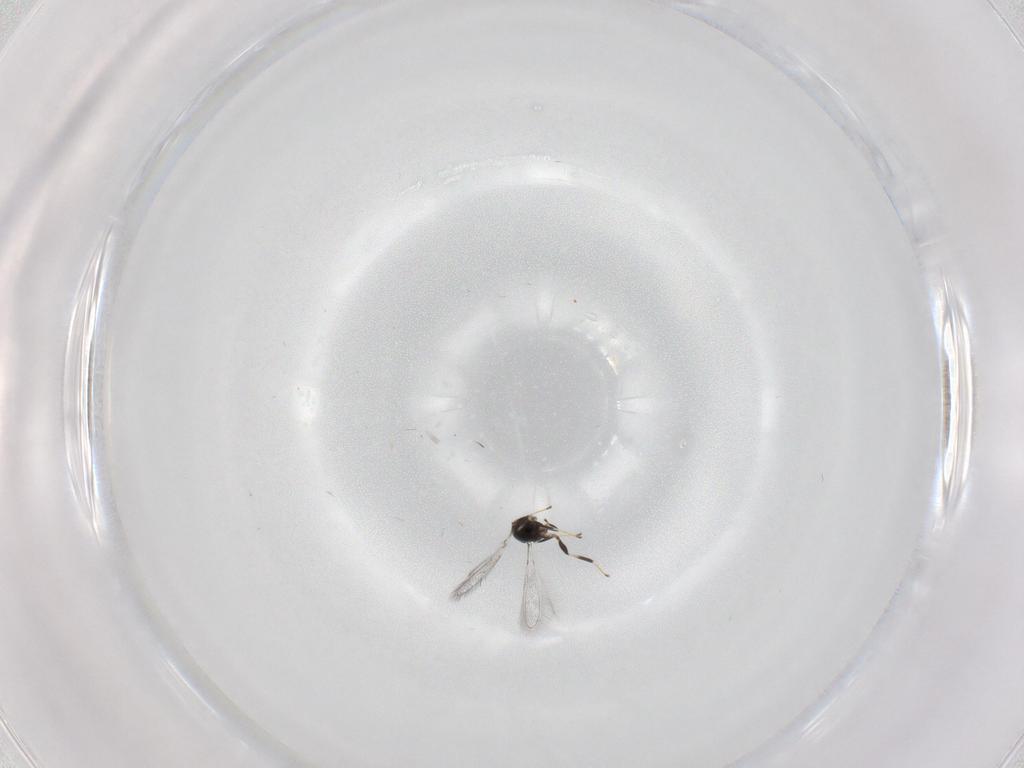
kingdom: Animalia
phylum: Arthropoda
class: Insecta
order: Hymenoptera
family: Mymaridae
